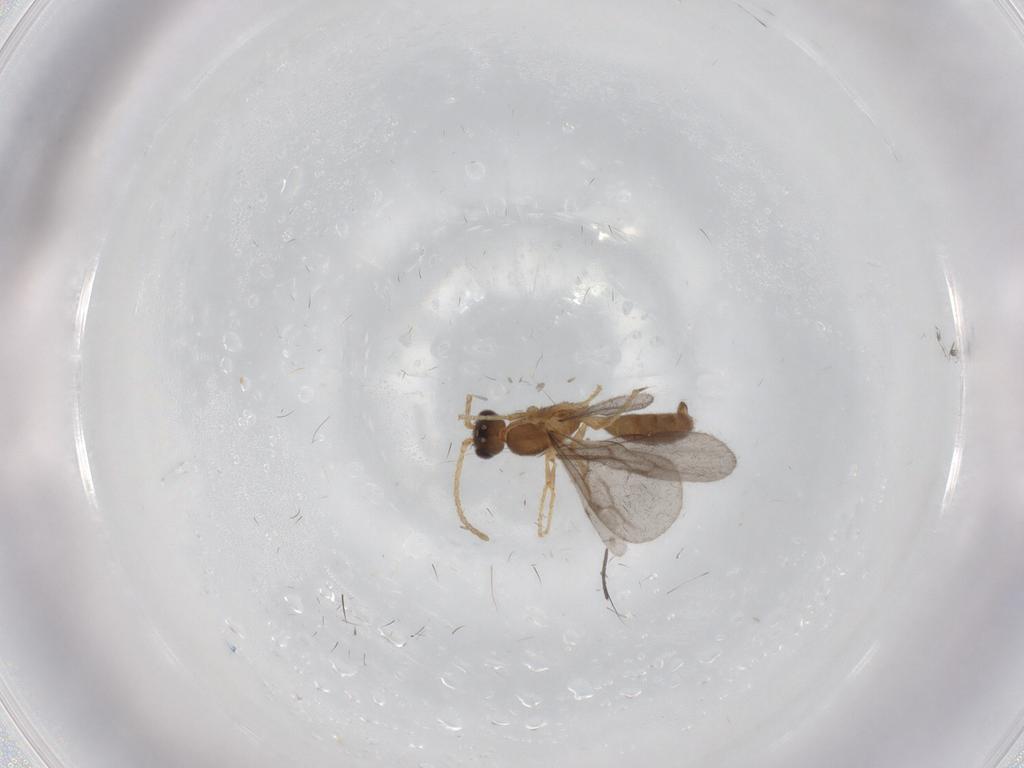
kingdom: Animalia
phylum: Arthropoda
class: Insecta
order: Hymenoptera
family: Formicidae
